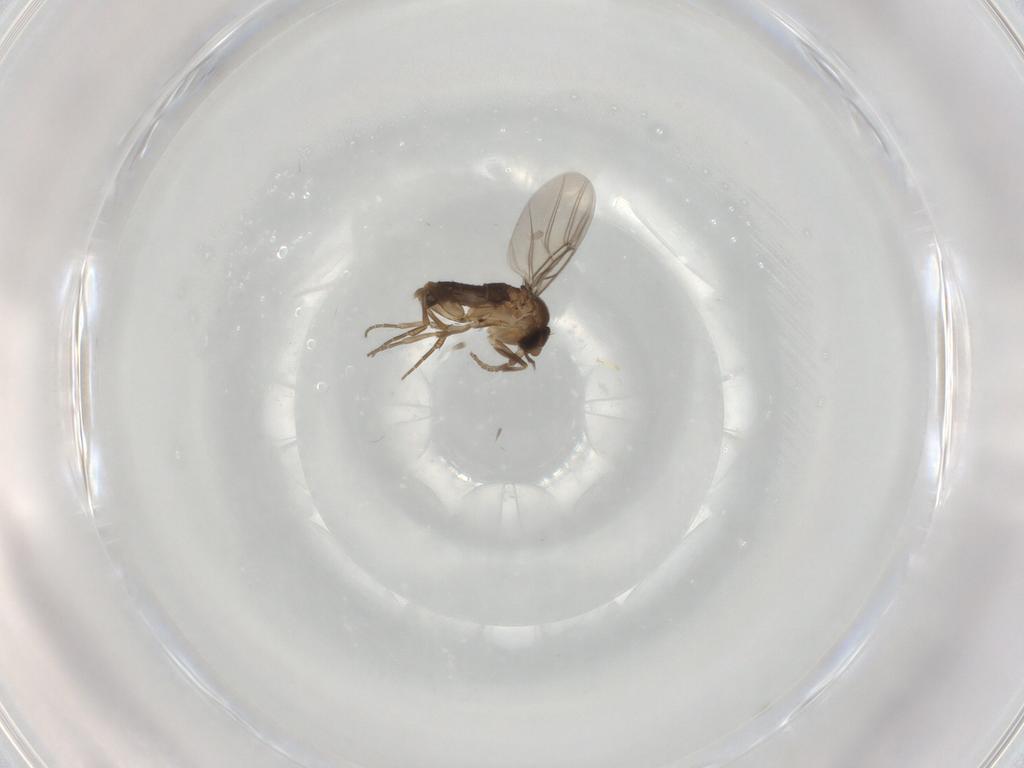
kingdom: Animalia
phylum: Arthropoda
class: Insecta
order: Diptera
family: Phoridae
